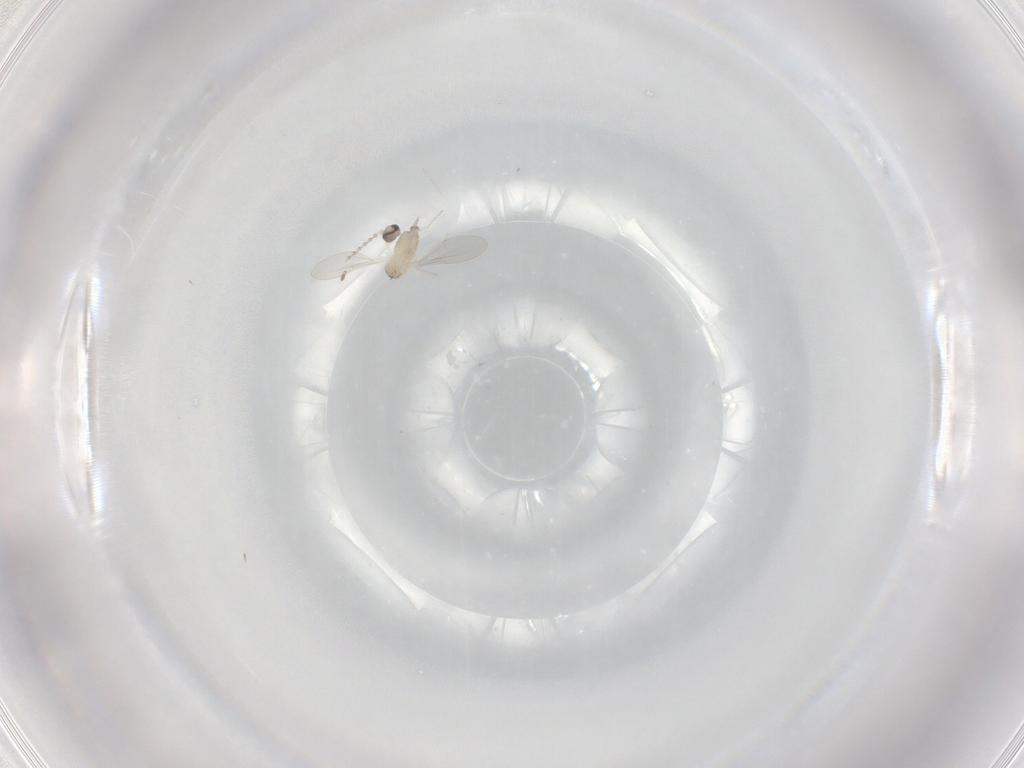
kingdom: Animalia
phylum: Arthropoda
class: Insecta
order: Diptera
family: Cecidomyiidae
